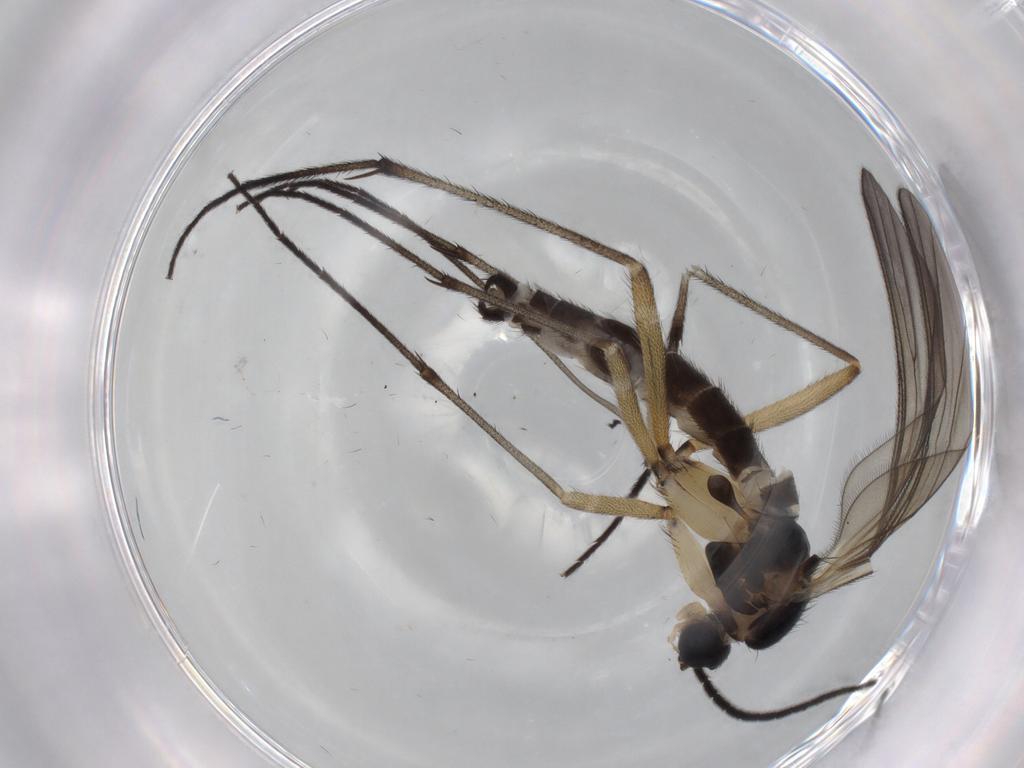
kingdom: Animalia
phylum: Arthropoda
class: Insecta
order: Diptera
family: Sciaridae
